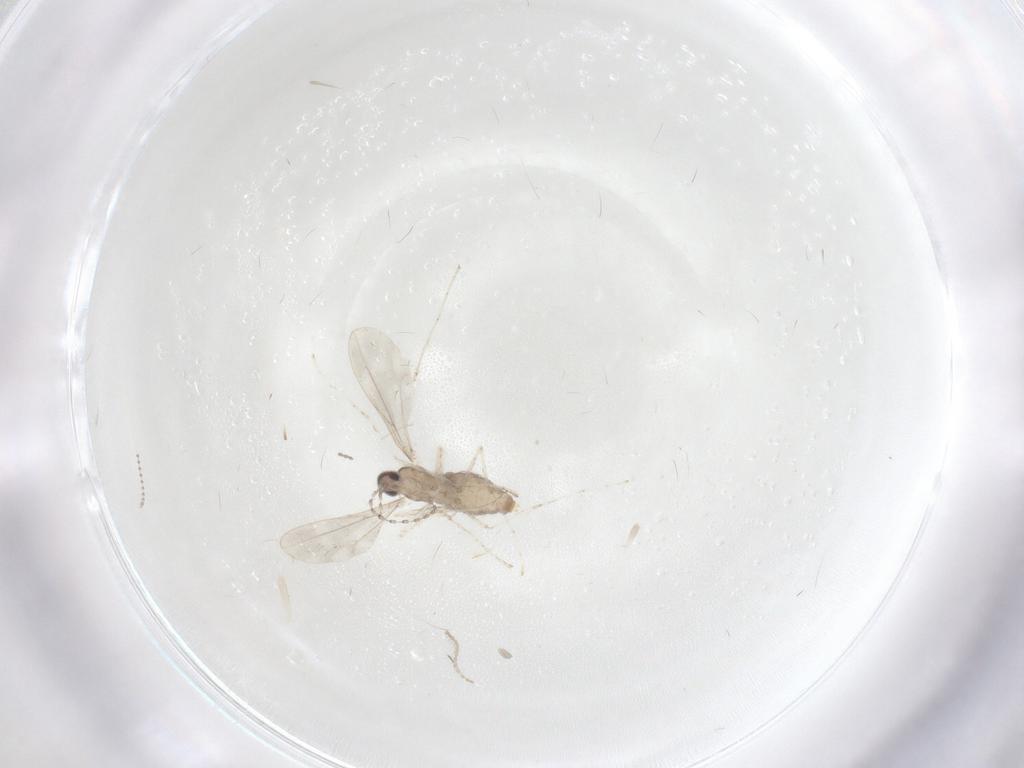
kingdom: Animalia
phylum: Arthropoda
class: Insecta
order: Diptera
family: Cecidomyiidae
